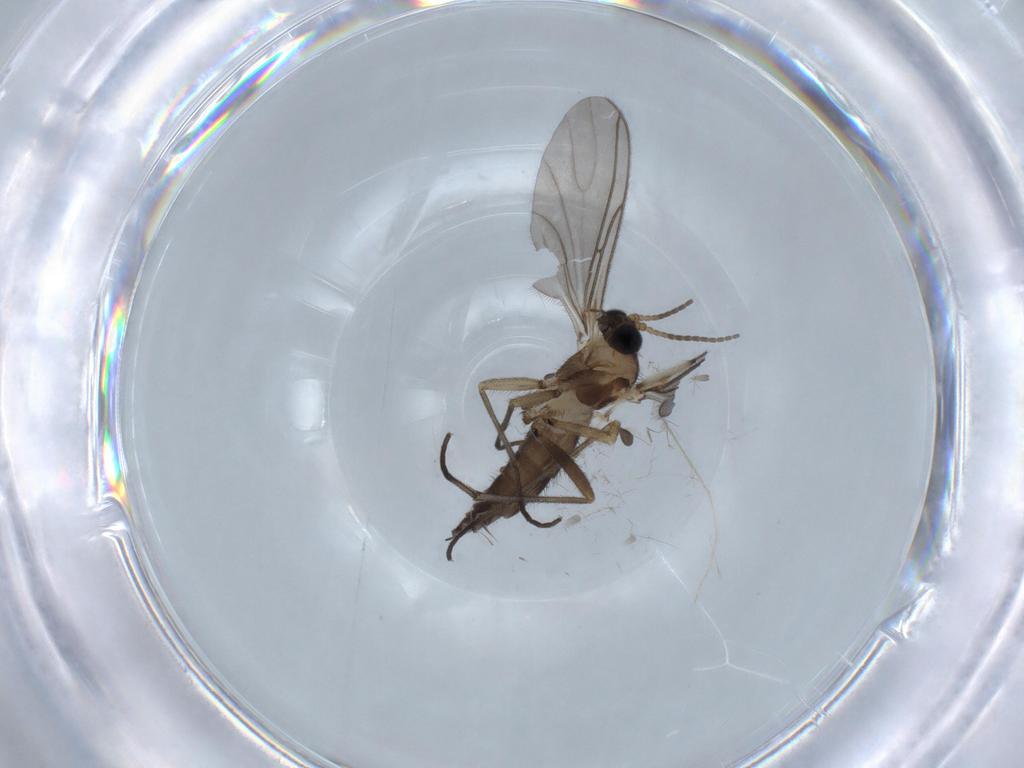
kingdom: Animalia
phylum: Arthropoda
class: Insecta
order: Diptera
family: Sciaridae
